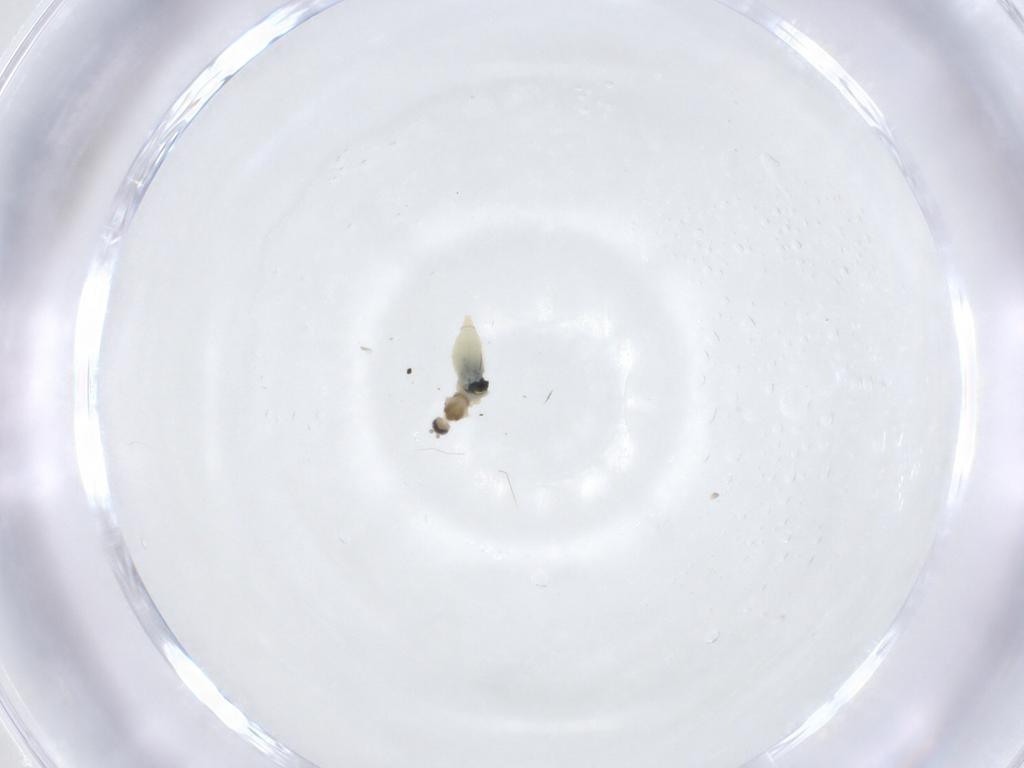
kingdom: Animalia
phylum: Arthropoda
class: Insecta
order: Diptera
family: Cecidomyiidae
